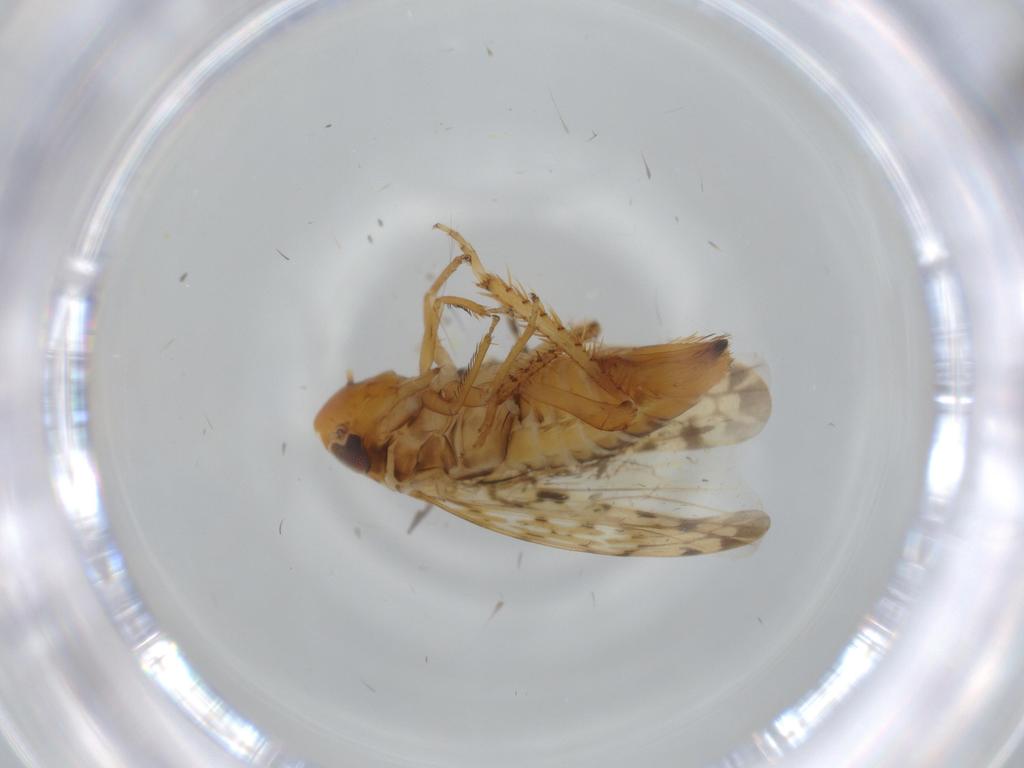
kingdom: Animalia
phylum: Arthropoda
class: Insecta
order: Hemiptera
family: Cicadellidae
